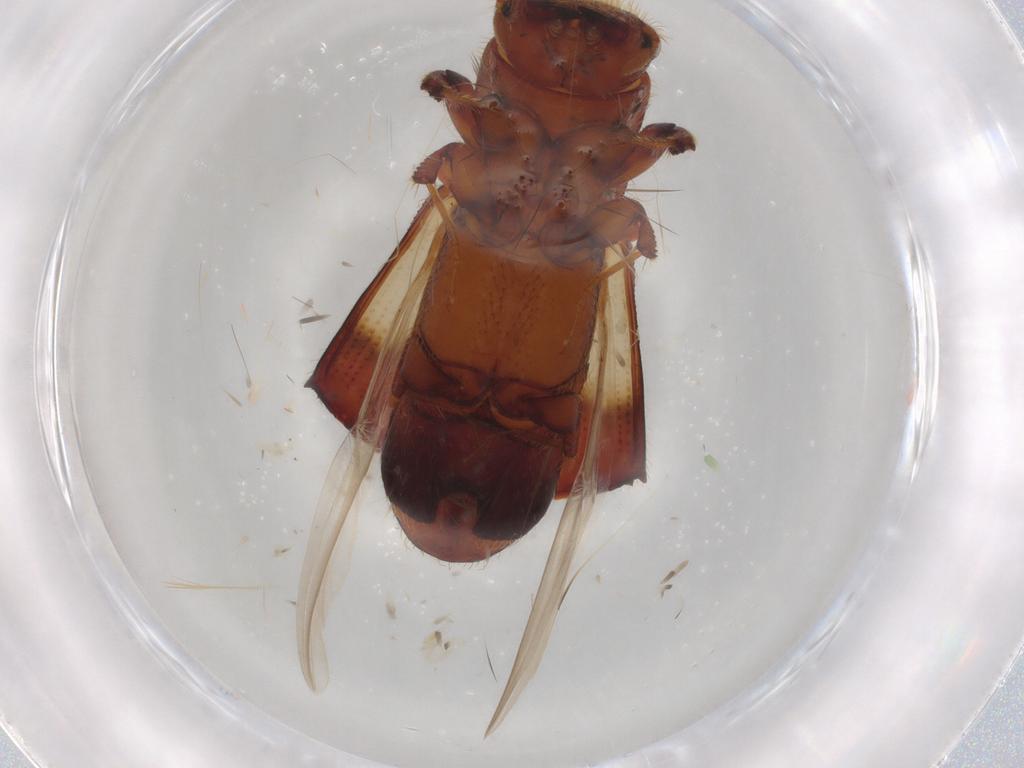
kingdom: Animalia
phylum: Arthropoda
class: Insecta
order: Coleoptera
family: Curculionidae
